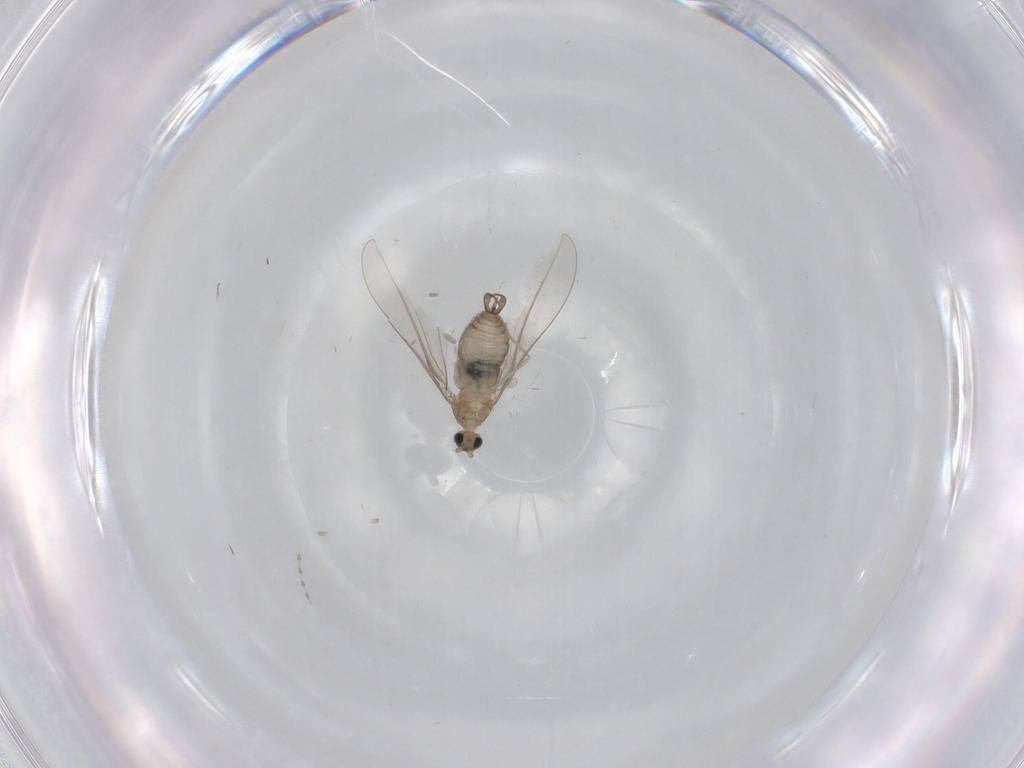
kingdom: Animalia
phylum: Arthropoda
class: Insecta
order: Diptera
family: Cecidomyiidae
